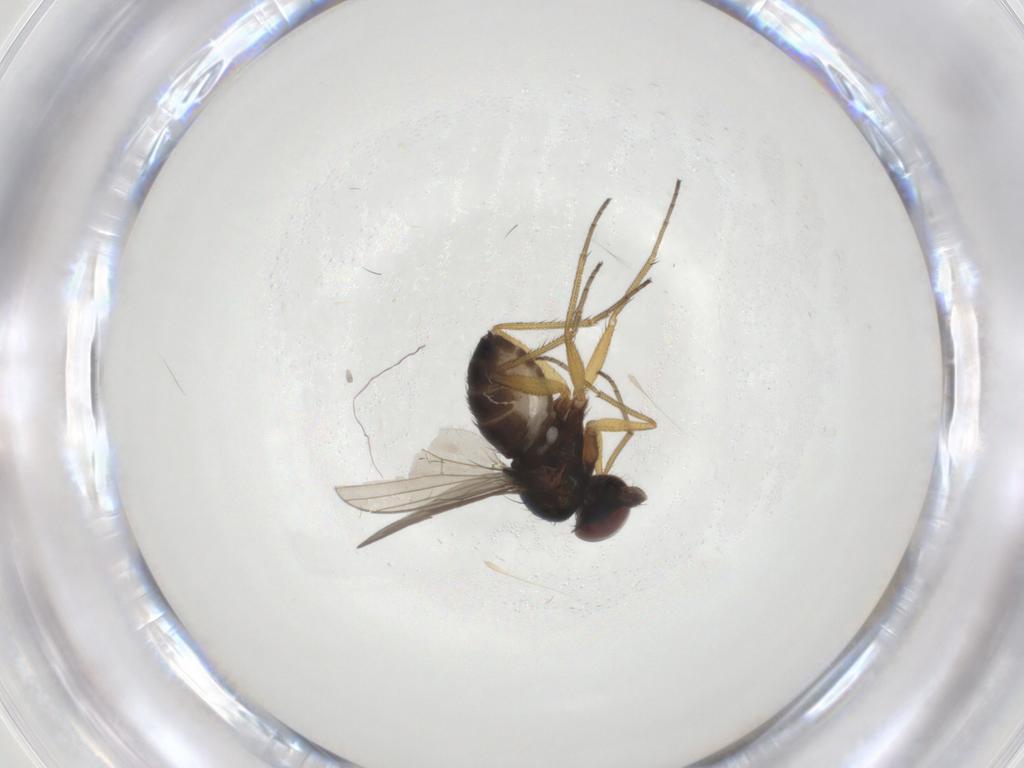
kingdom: Animalia
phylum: Arthropoda
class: Insecta
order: Diptera
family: Dolichopodidae
